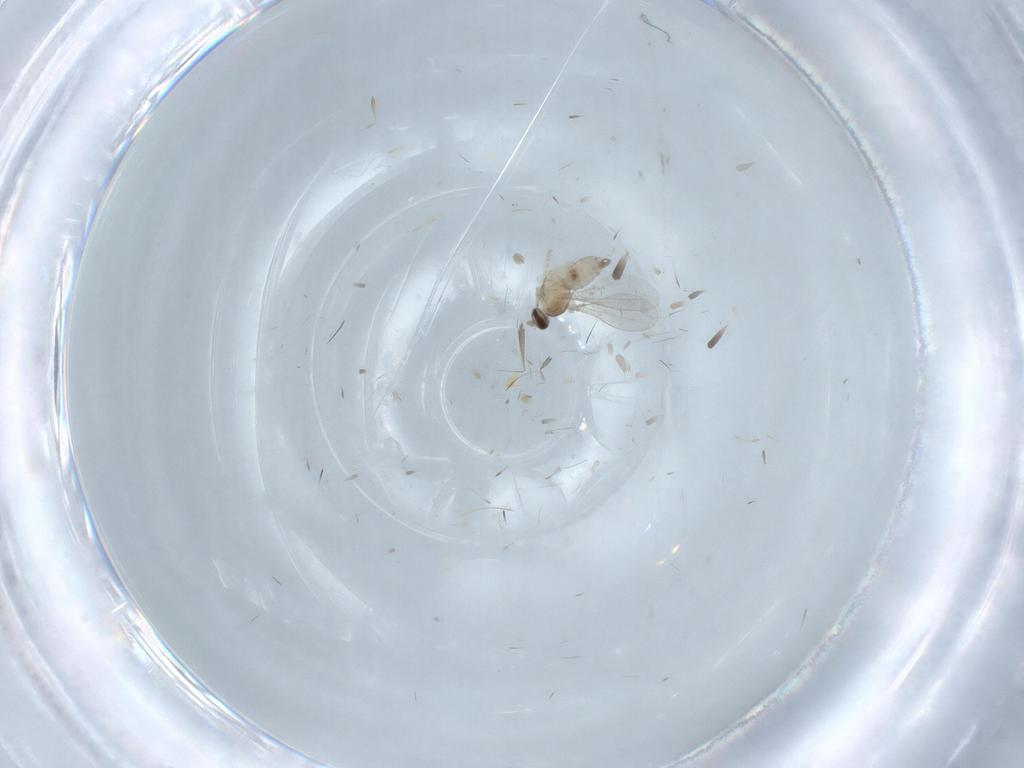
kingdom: Animalia
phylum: Arthropoda
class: Insecta
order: Diptera
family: Cecidomyiidae
